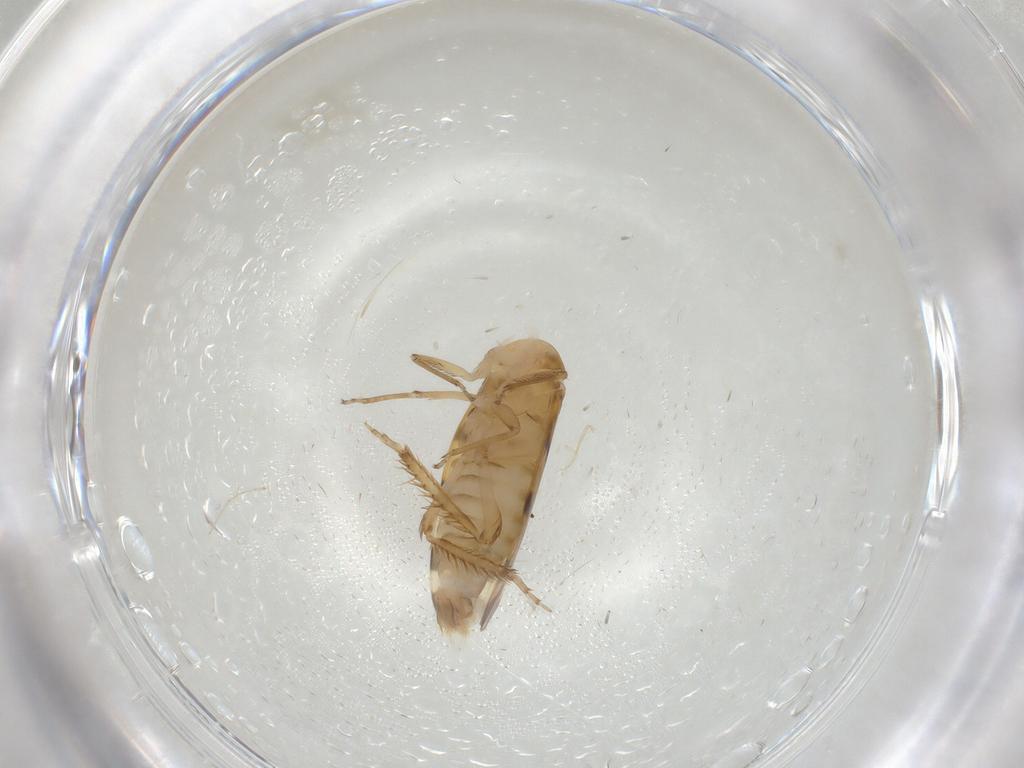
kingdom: Animalia
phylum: Arthropoda
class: Insecta
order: Hemiptera
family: Cicadellidae
